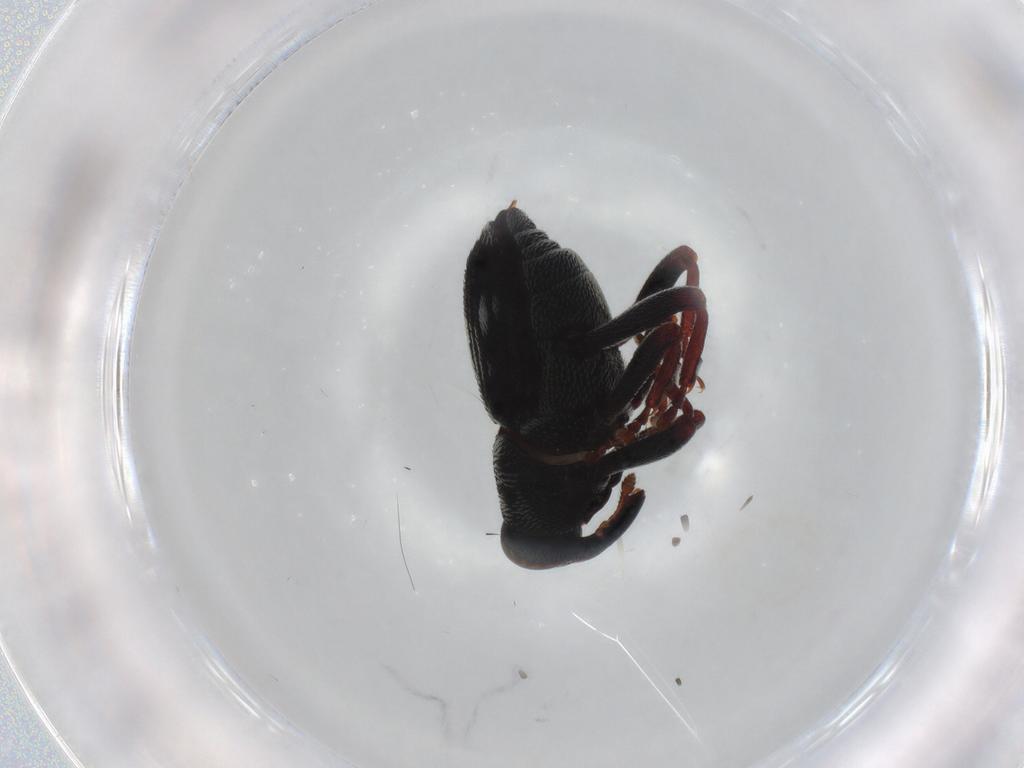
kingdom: Animalia
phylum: Arthropoda
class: Insecta
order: Coleoptera
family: Curculionidae
